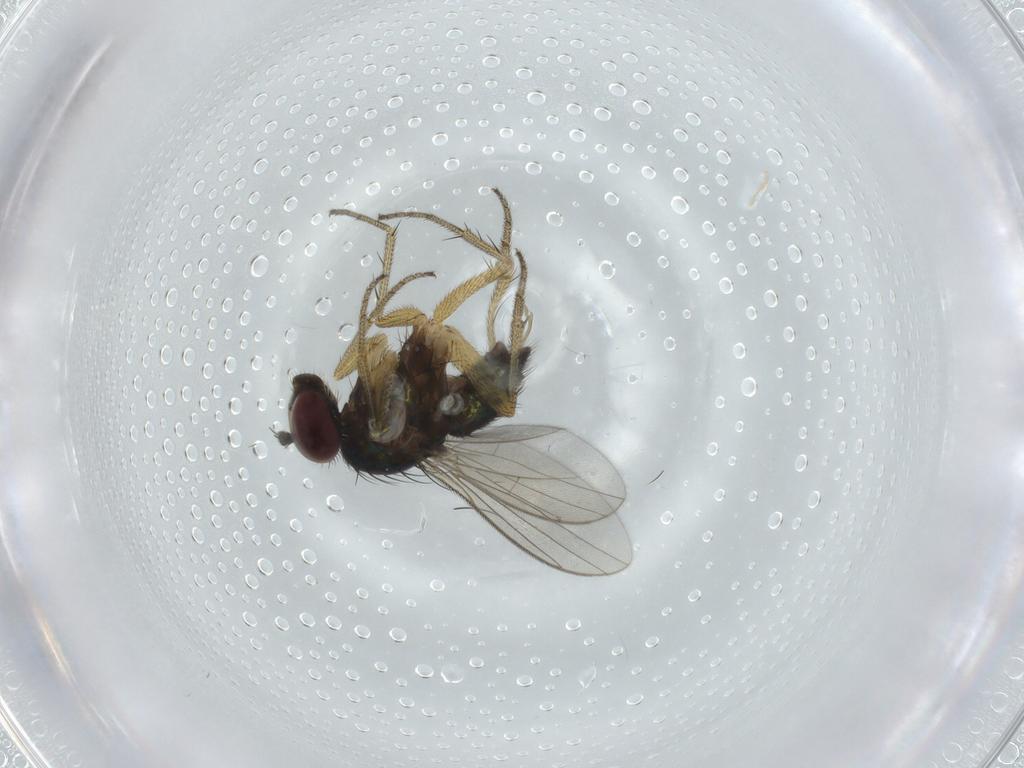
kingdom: Animalia
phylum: Arthropoda
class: Insecta
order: Diptera
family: Dolichopodidae
